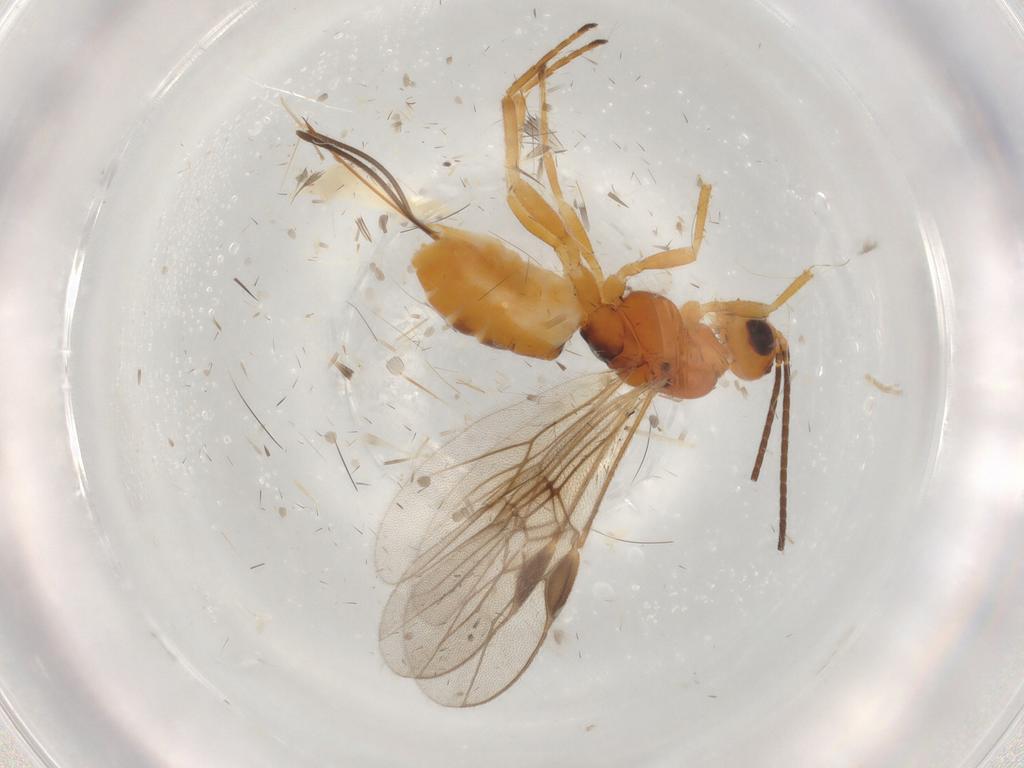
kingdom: Animalia
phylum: Arthropoda
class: Insecta
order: Hymenoptera
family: Braconidae
